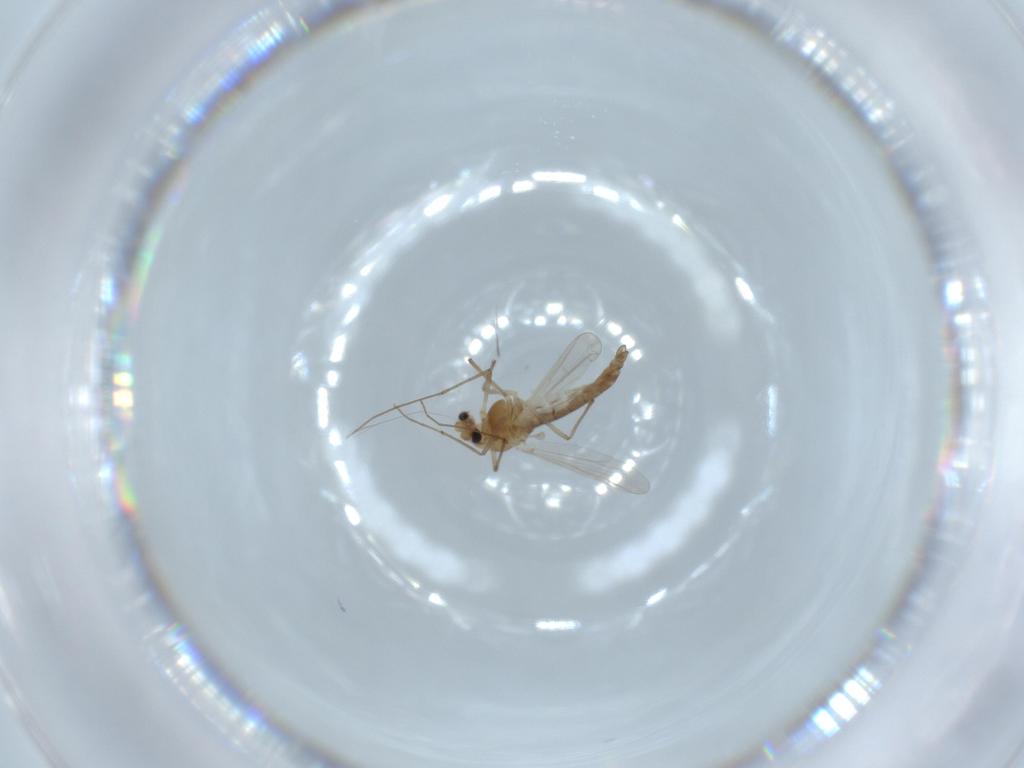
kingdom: Animalia
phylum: Arthropoda
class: Insecta
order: Diptera
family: Chironomidae
